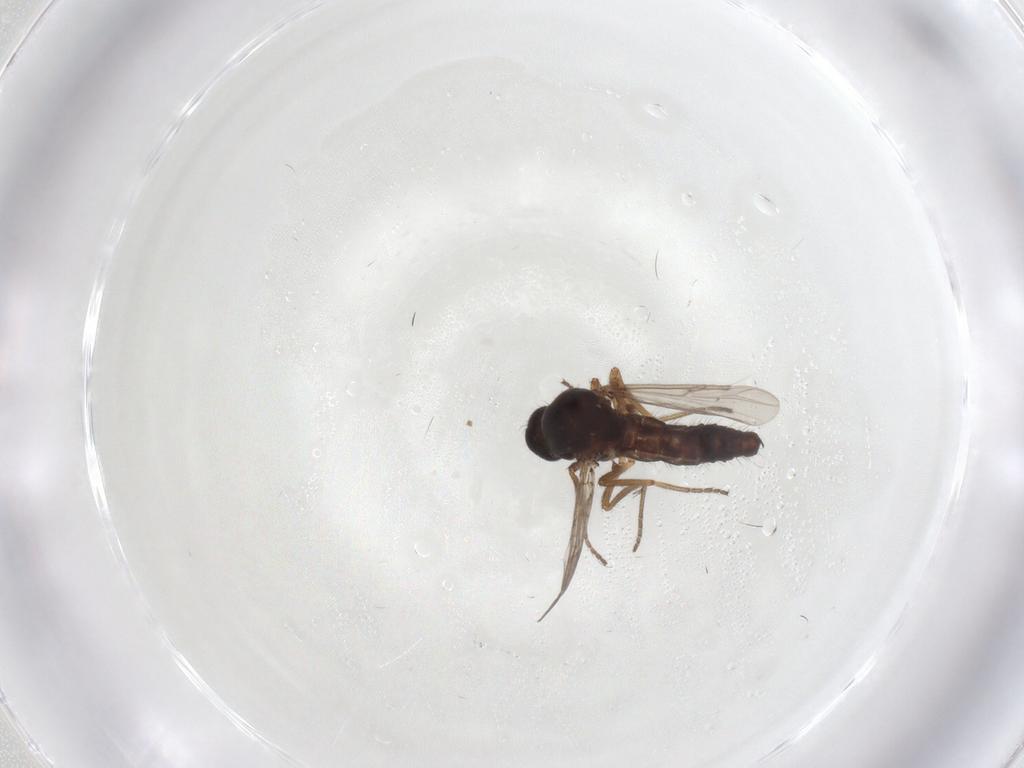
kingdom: Animalia
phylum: Arthropoda
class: Insecta
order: Diptera
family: Ceratopogonidae
